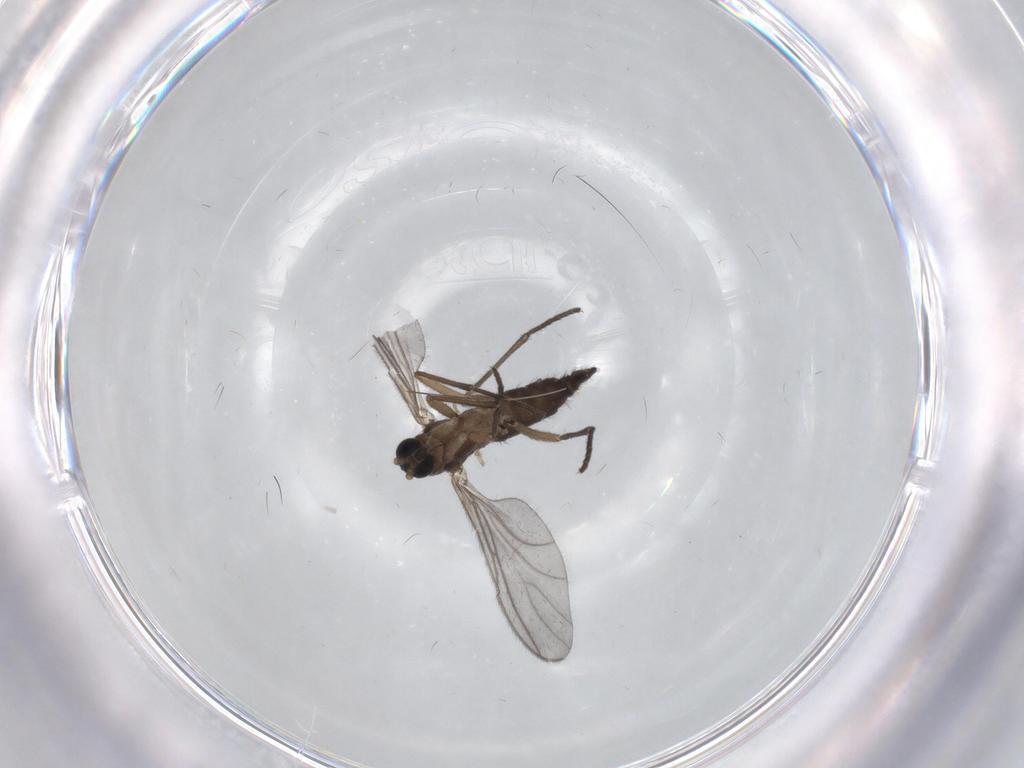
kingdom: Animalia
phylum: Arthropoda
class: Insecta
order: Diptera
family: Sciaridae
